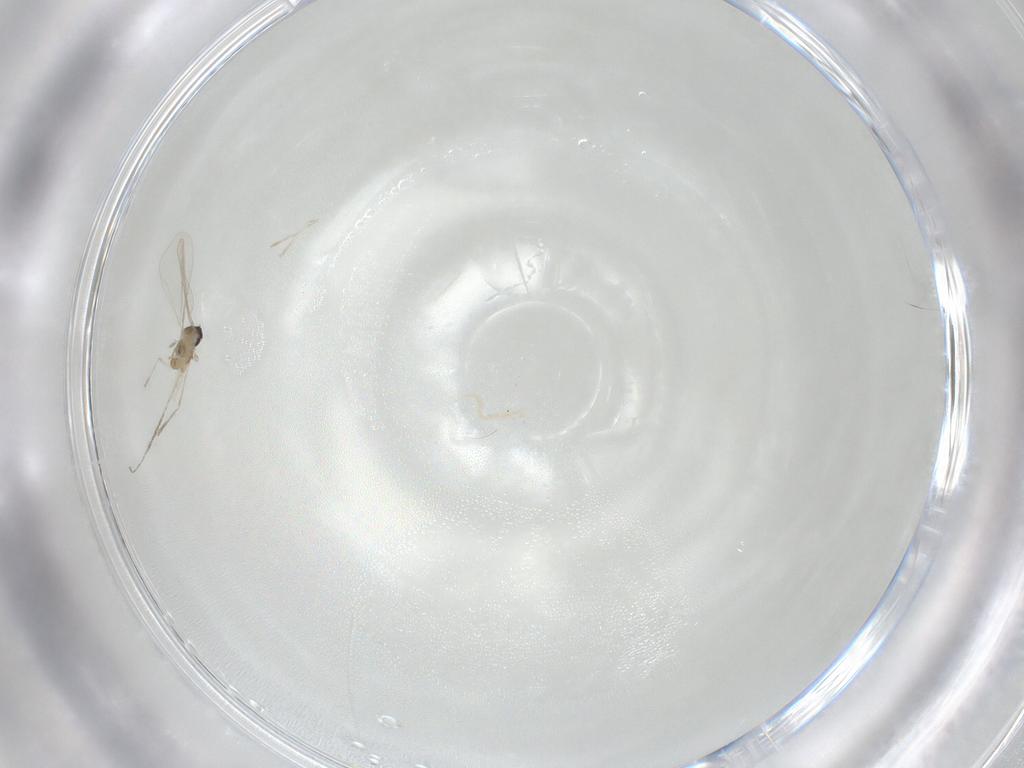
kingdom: Animalia
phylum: Arthropoda
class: Insecta
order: Diptera
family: Cecidomyiidae
